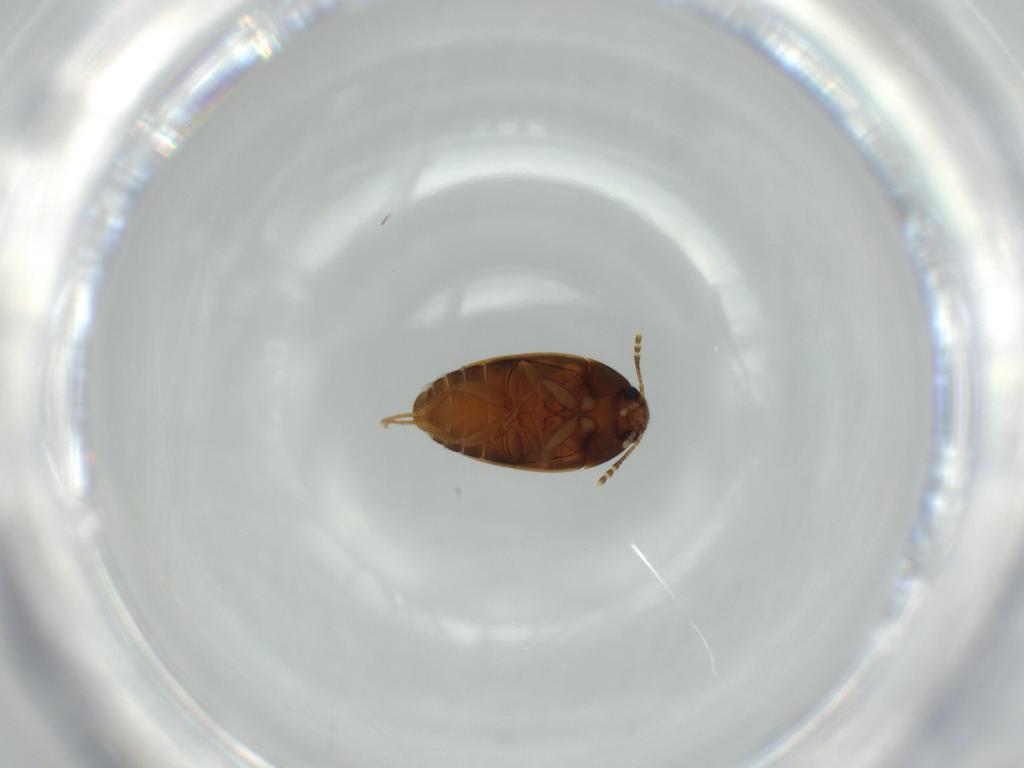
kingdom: Animalia
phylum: Arthropoda
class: Insecta
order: Coleoptera
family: Mycetophagidae
